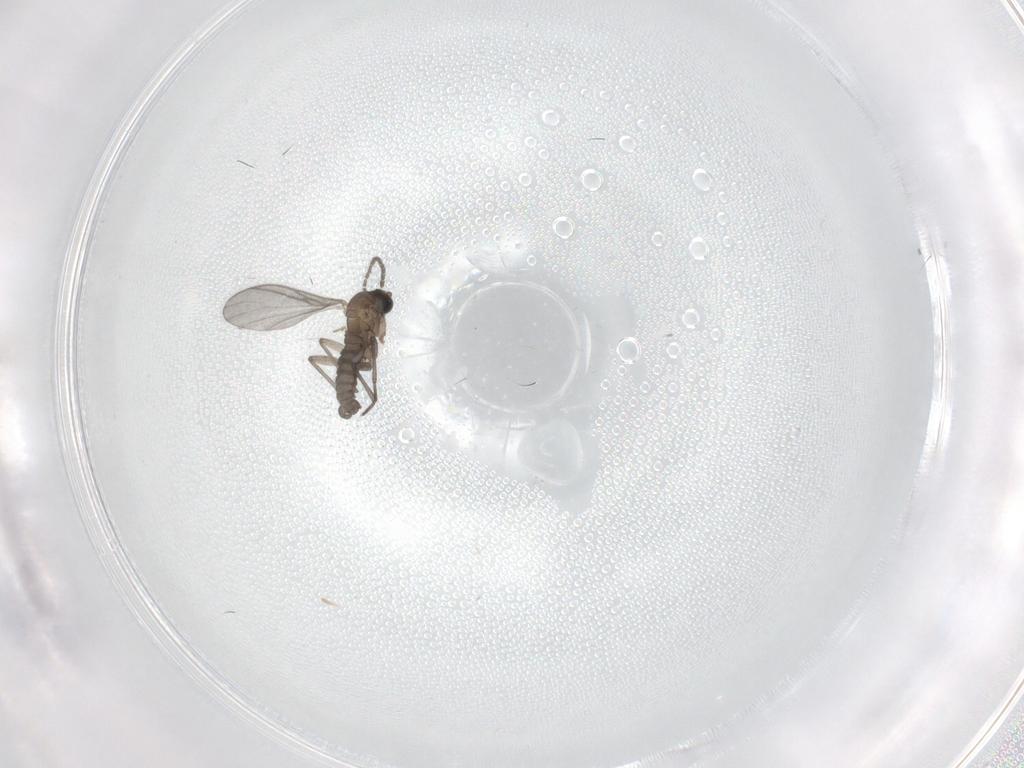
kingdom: Animalia
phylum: Arthropoda
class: Insecta
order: Diptera
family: Sciaridae
